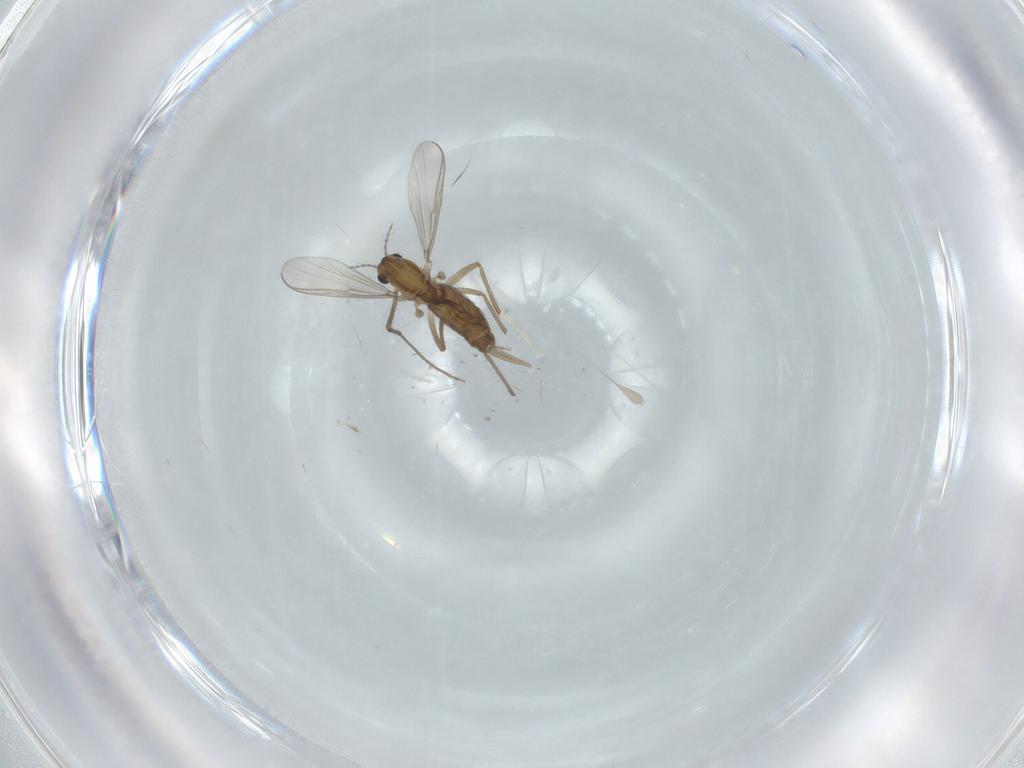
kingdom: Animalia
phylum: Arthropoda
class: Insecta
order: Diptera
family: Chironomidae
